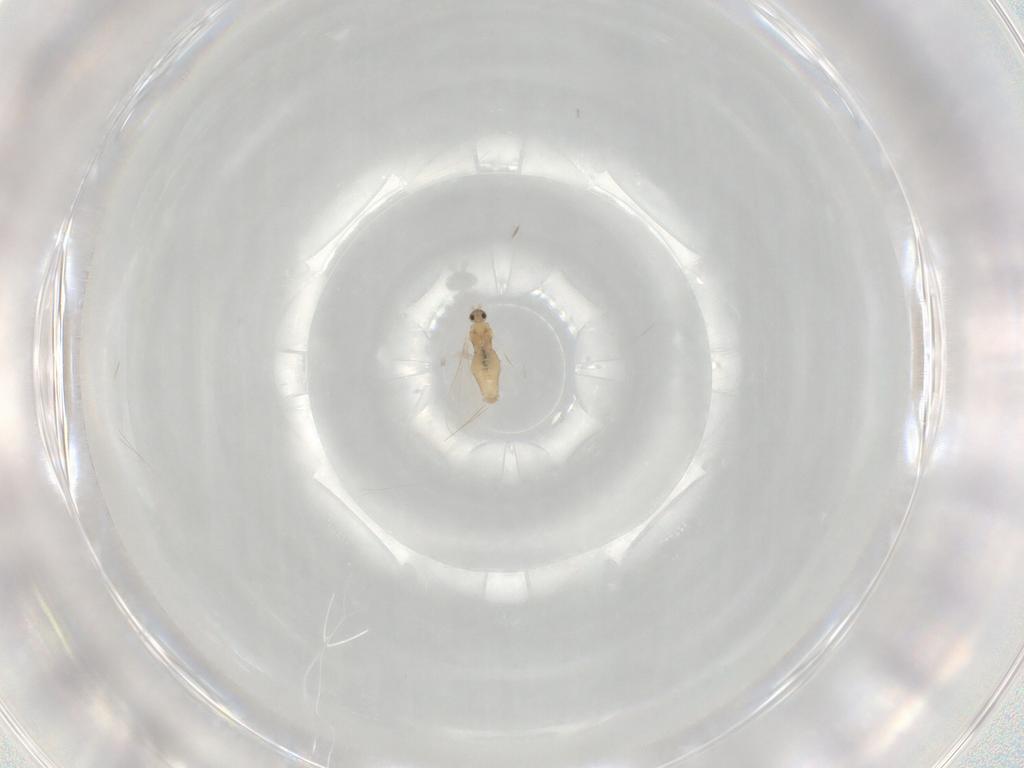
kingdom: Animalia
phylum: Arthropoda
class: Insecta
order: Diptera
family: Cecidomyiidae
